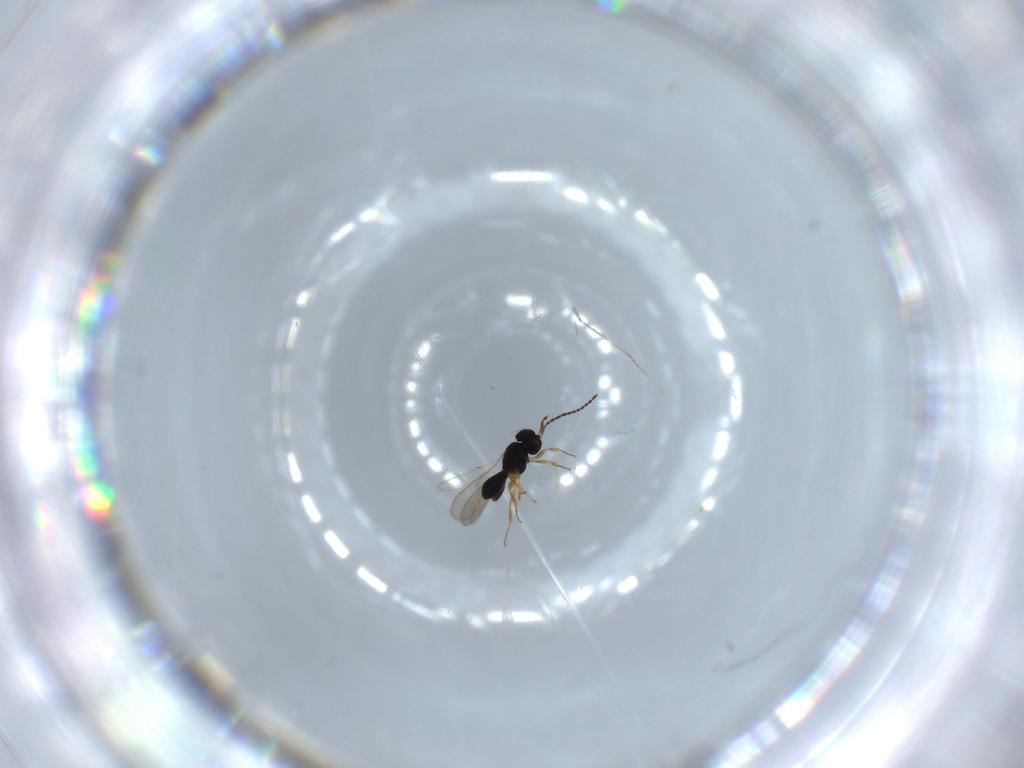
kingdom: Animalia
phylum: Arthropoda
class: Insecta
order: Hymenoptera
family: Scelionidae
